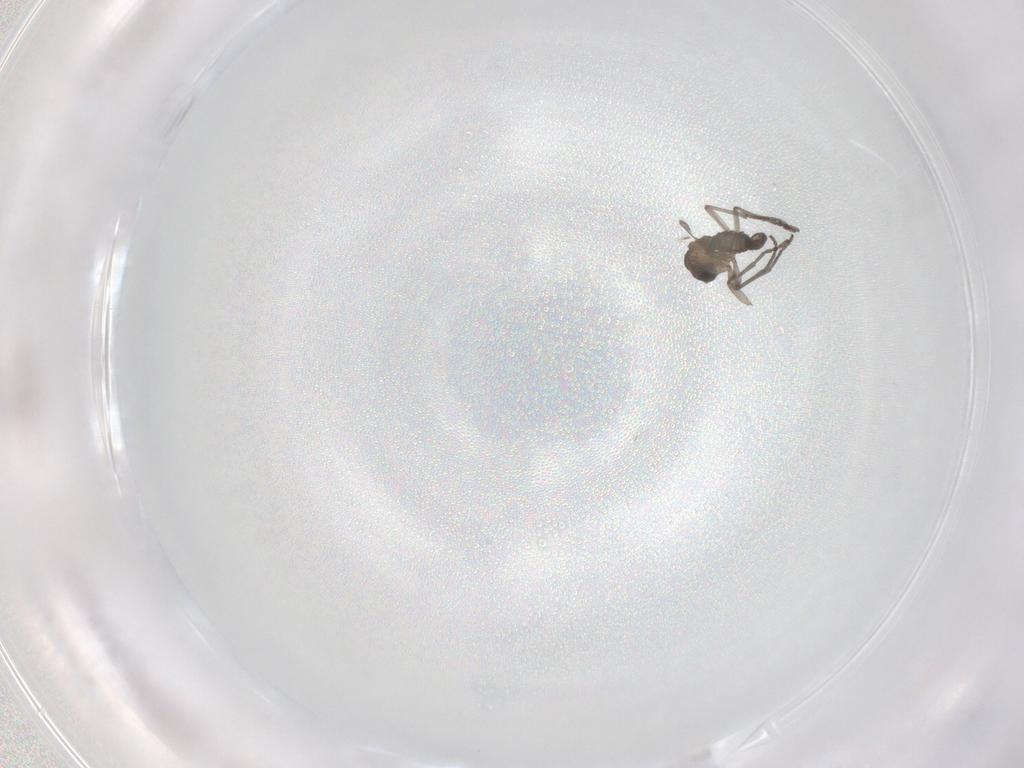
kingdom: Animalia
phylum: Arthropoda
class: Insecta
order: Diptera
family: Sciaridae
